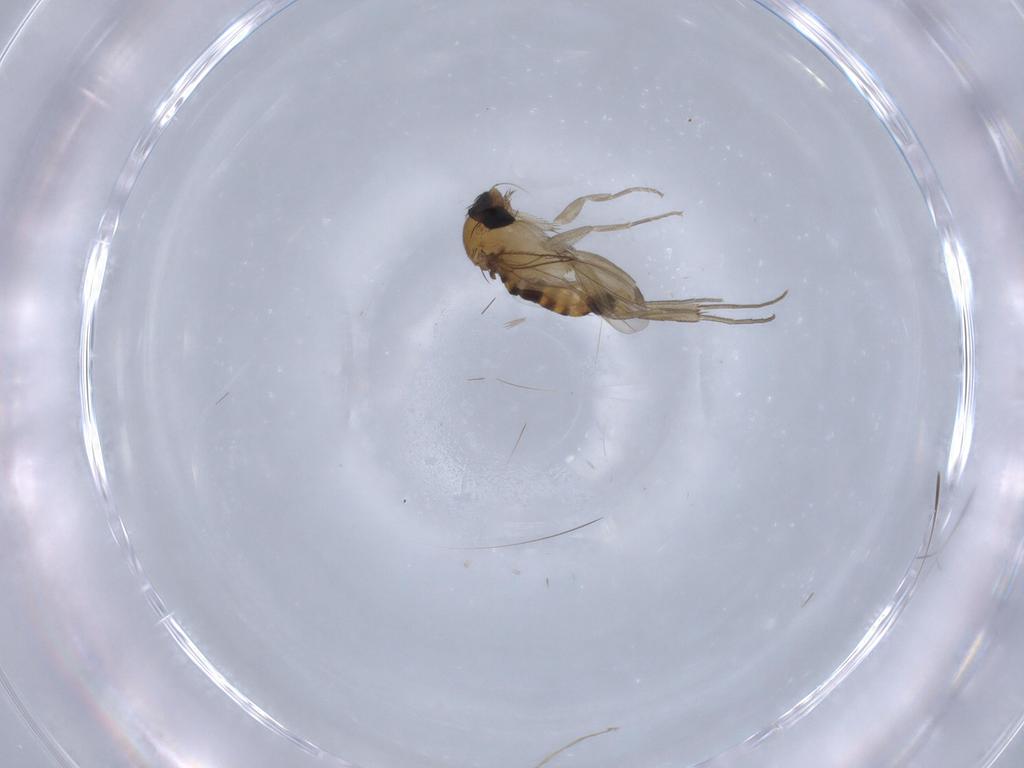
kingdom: Animalia
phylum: Arthropoda
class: Insecta
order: Diptera
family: Phoridae
